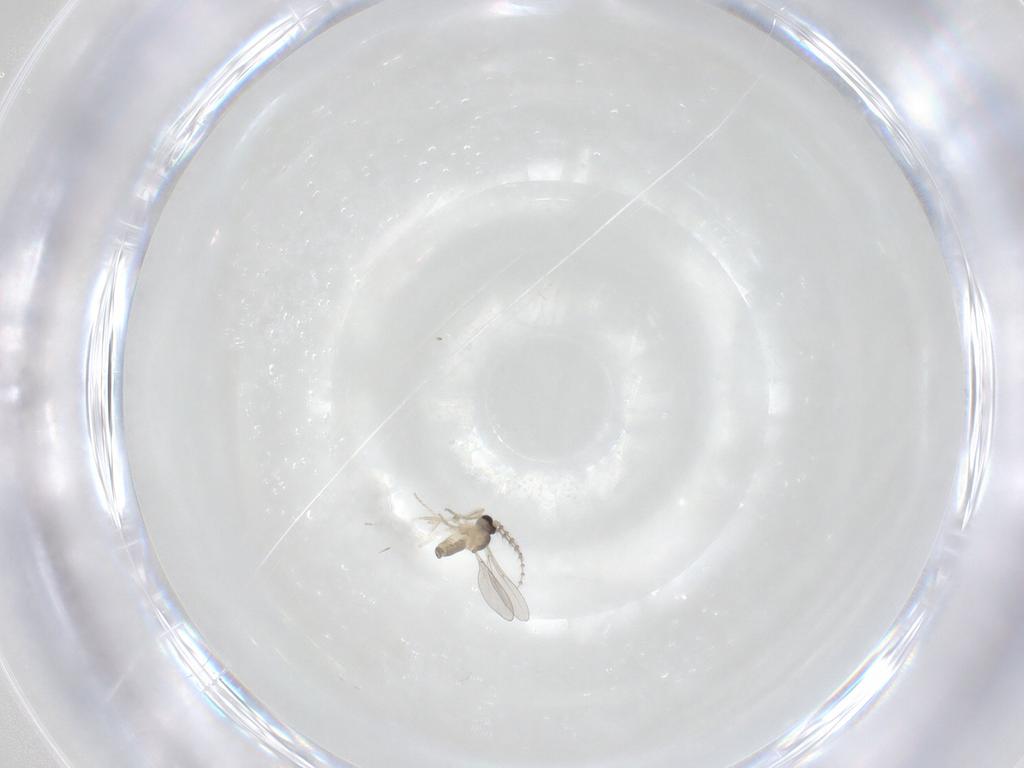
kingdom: Animalia
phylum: Arthropoda
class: Insecta
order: Diptera
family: Cecidomyiidae
